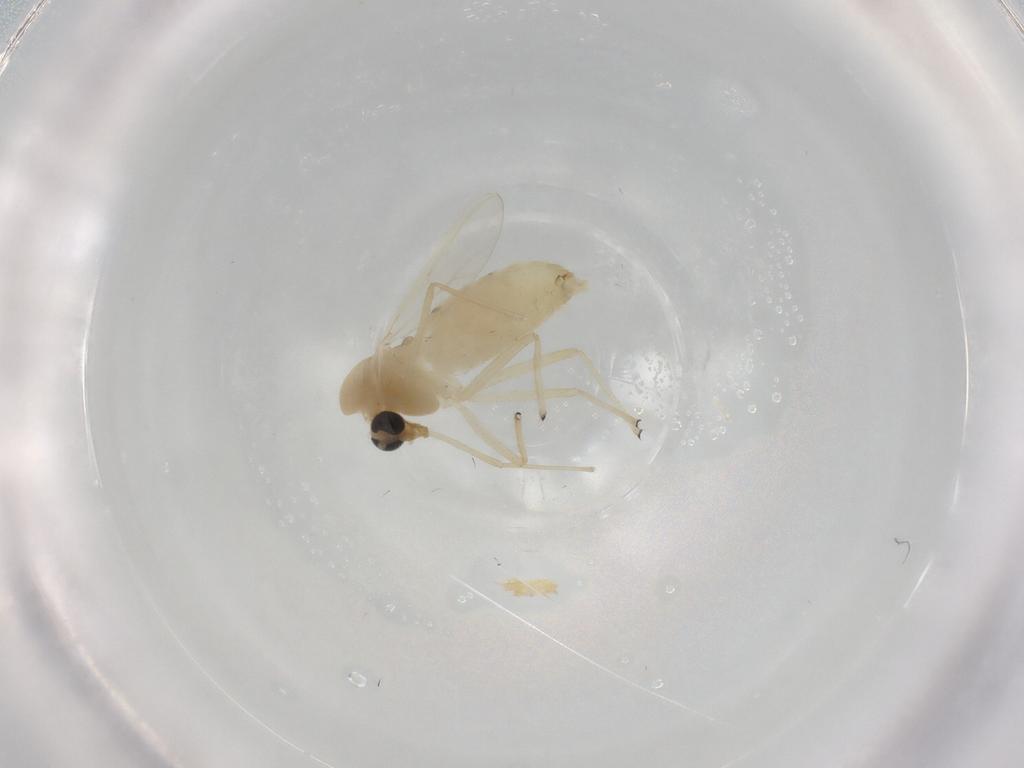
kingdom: Animalia
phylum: Arthropoda
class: Insecta
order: Diptera
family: Chironomidae
